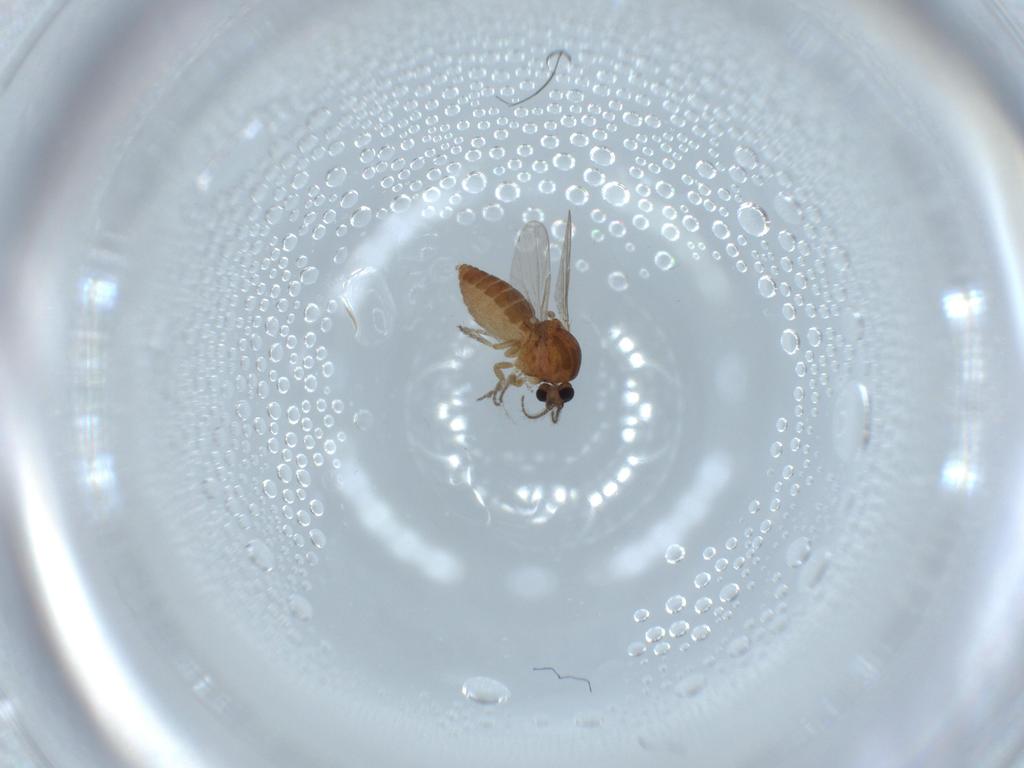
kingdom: Animalia
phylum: Arthropoda
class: Insecta
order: Diptera
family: Ceratopogonidae
